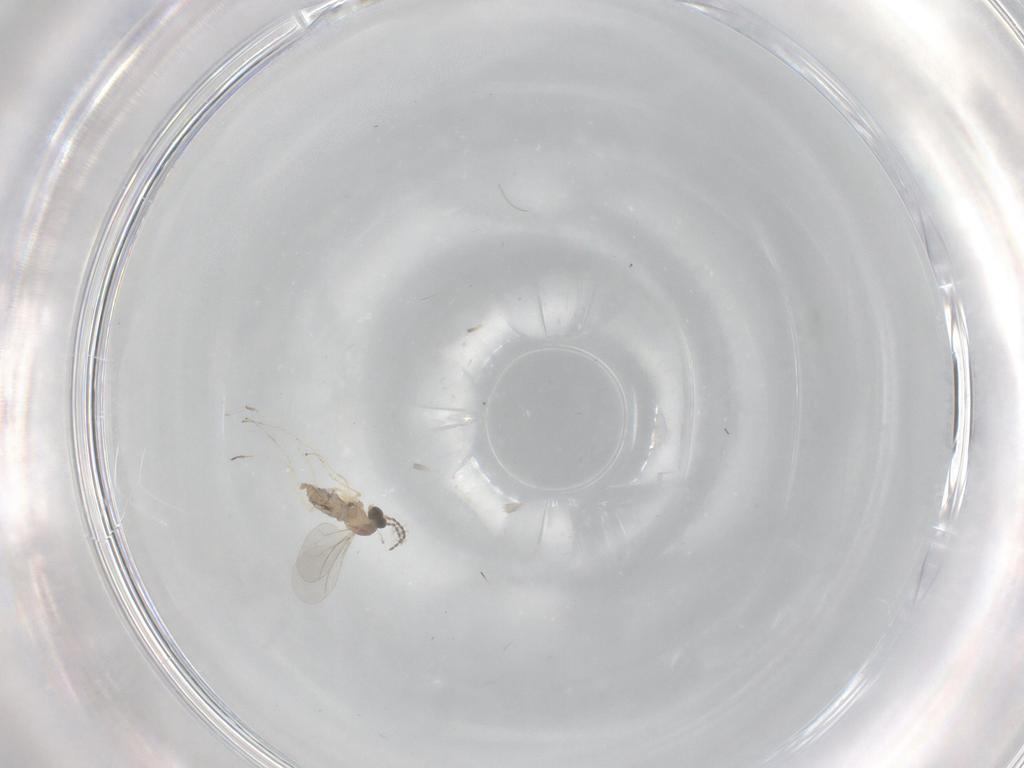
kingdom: Animalia
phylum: Arthropoda
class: Insecta
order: Diptera
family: Cecidomyiidae
